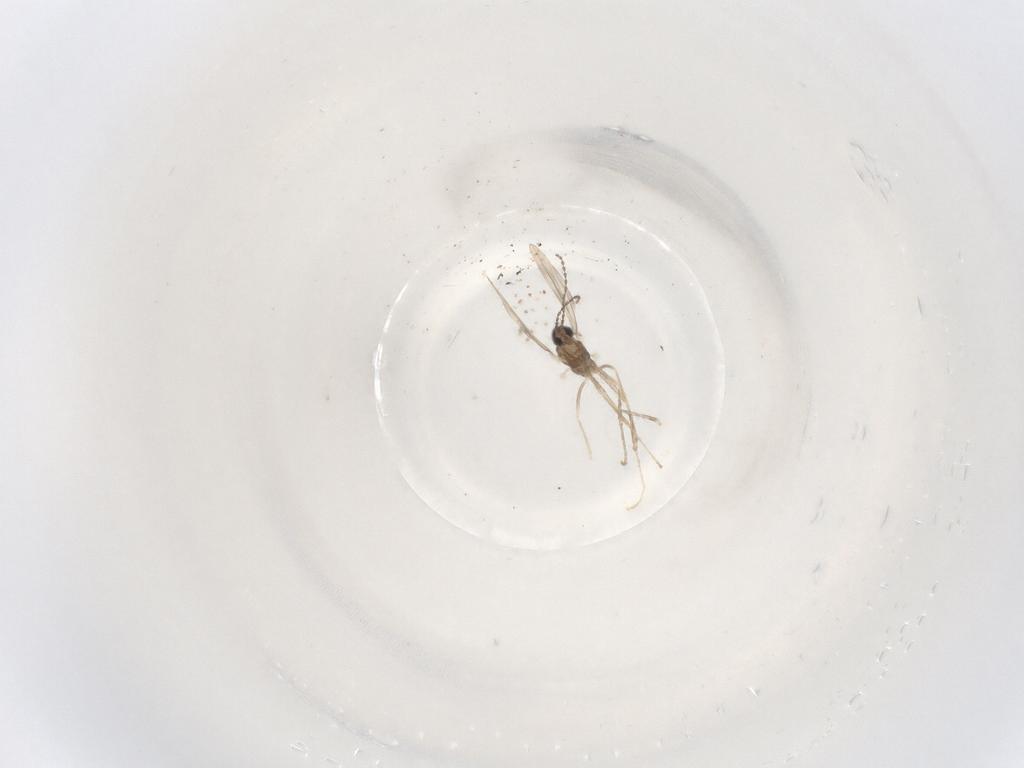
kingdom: Animalia
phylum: Arthropoda
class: Insecta
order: Diptera
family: Cecidomyiidae
